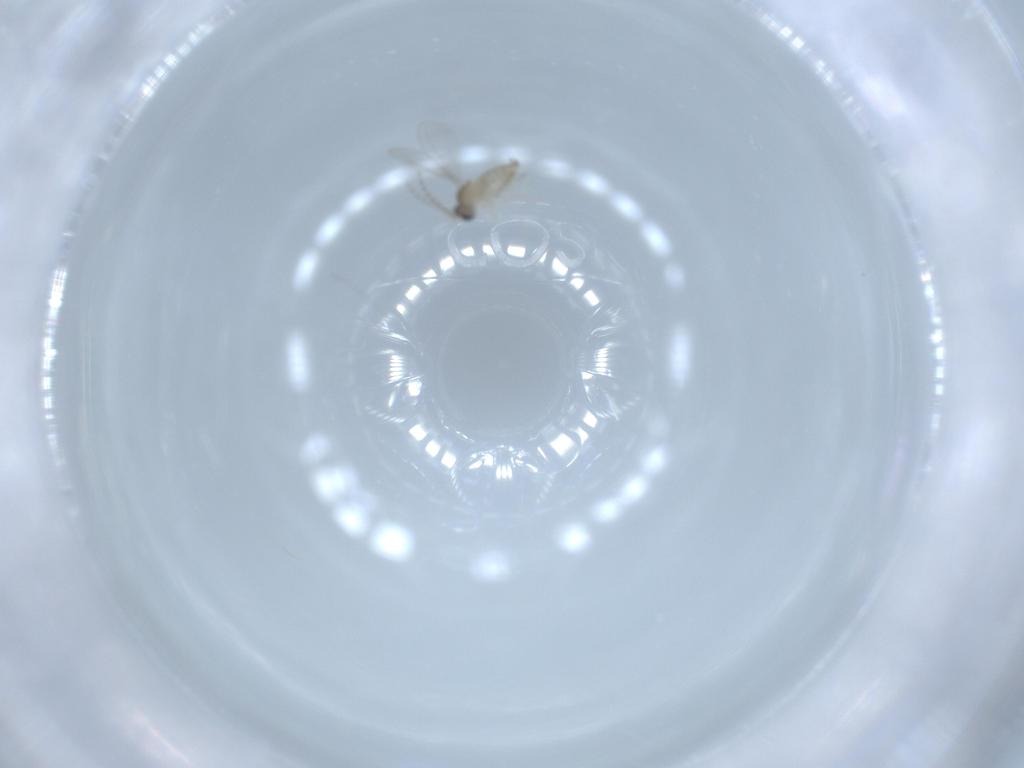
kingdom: Animalia
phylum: Arthropoda
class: Insecta
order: Diptera
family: Cecidomyiidae
